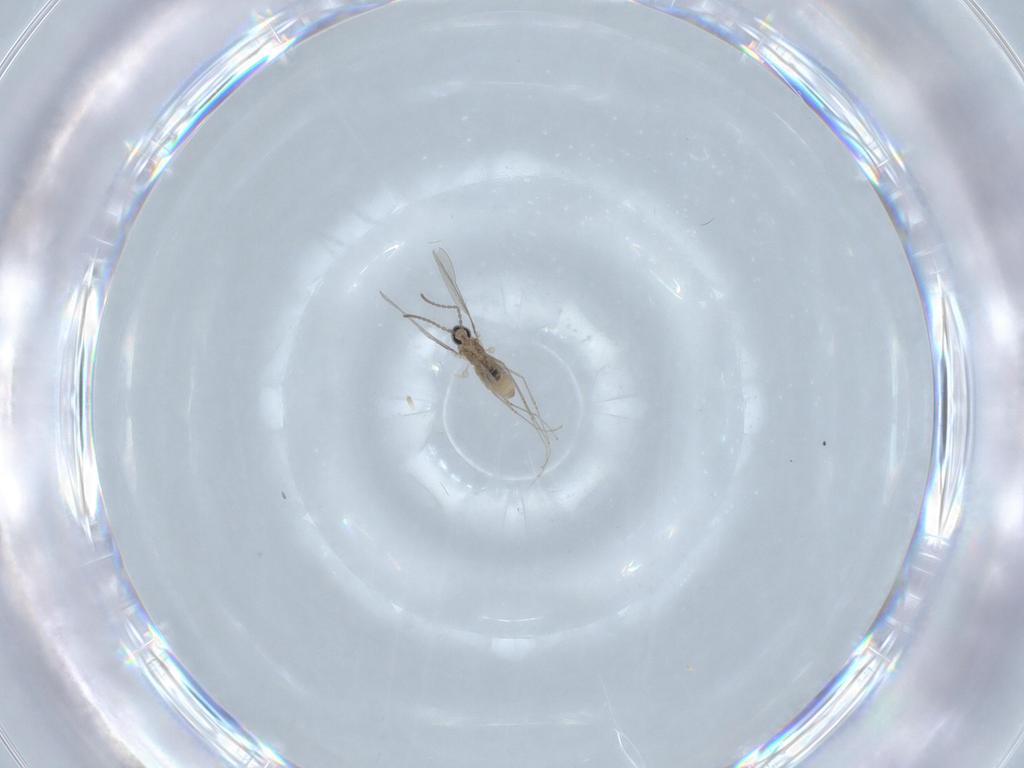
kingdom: Animalia
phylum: Arthropoda
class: Insecta
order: Diptera
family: Cecidomyiidae
